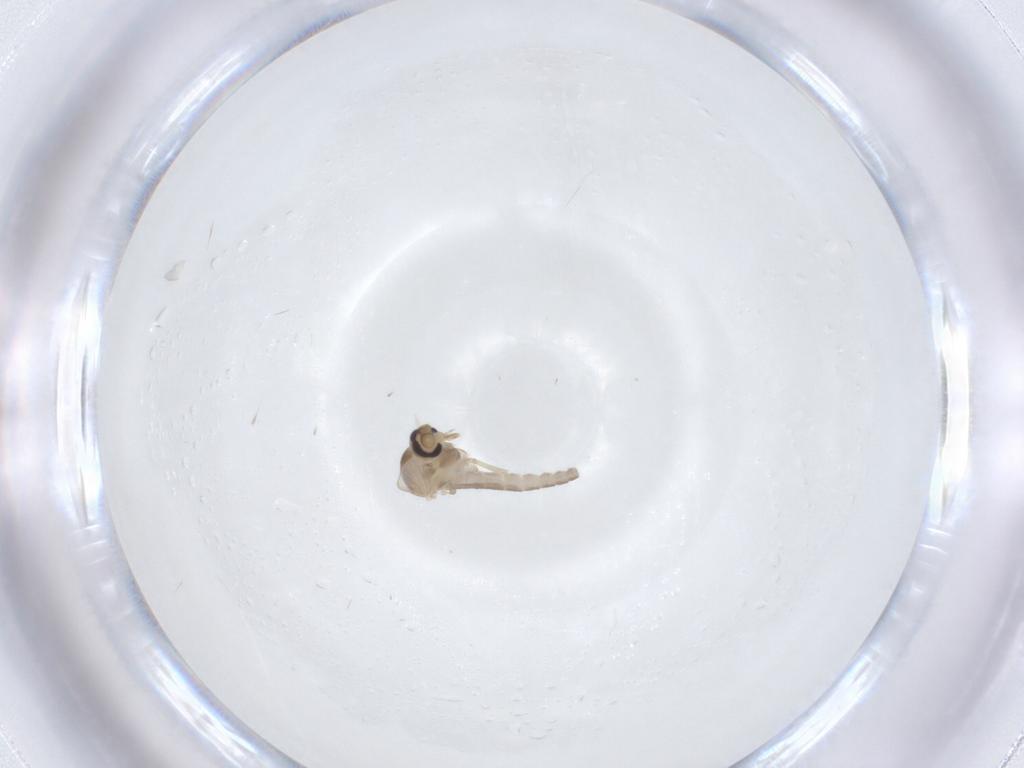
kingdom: Animalia
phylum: Arthropoda
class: Insecta
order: Diptera
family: Ceratopogonidae
